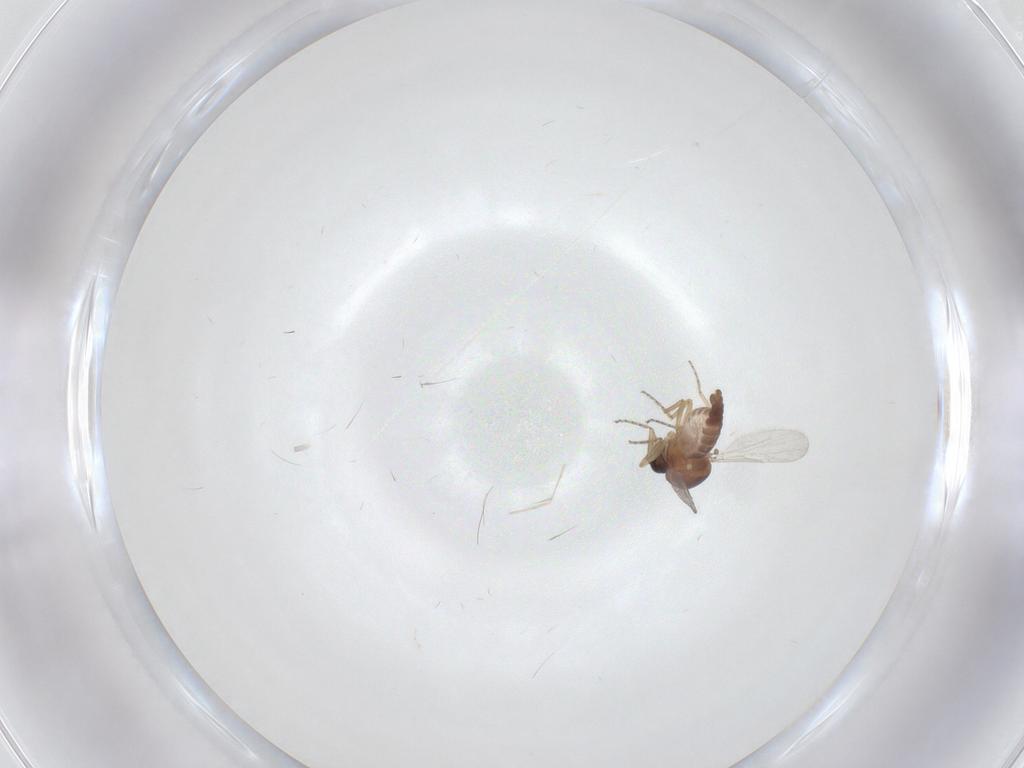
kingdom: Animalia
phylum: Arthropoda
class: Insecta
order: Diptera
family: Ceratopogonidae
